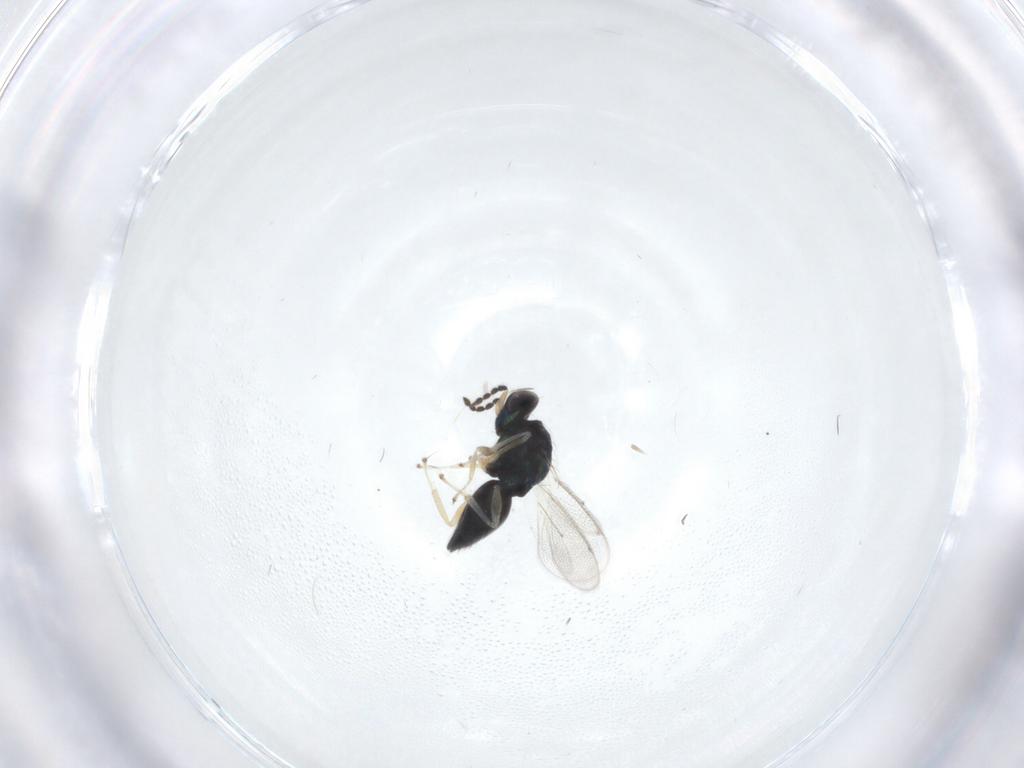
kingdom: Animalia
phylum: Arthropoda
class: Insecta
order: Hymenoptera
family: Eulophidae
